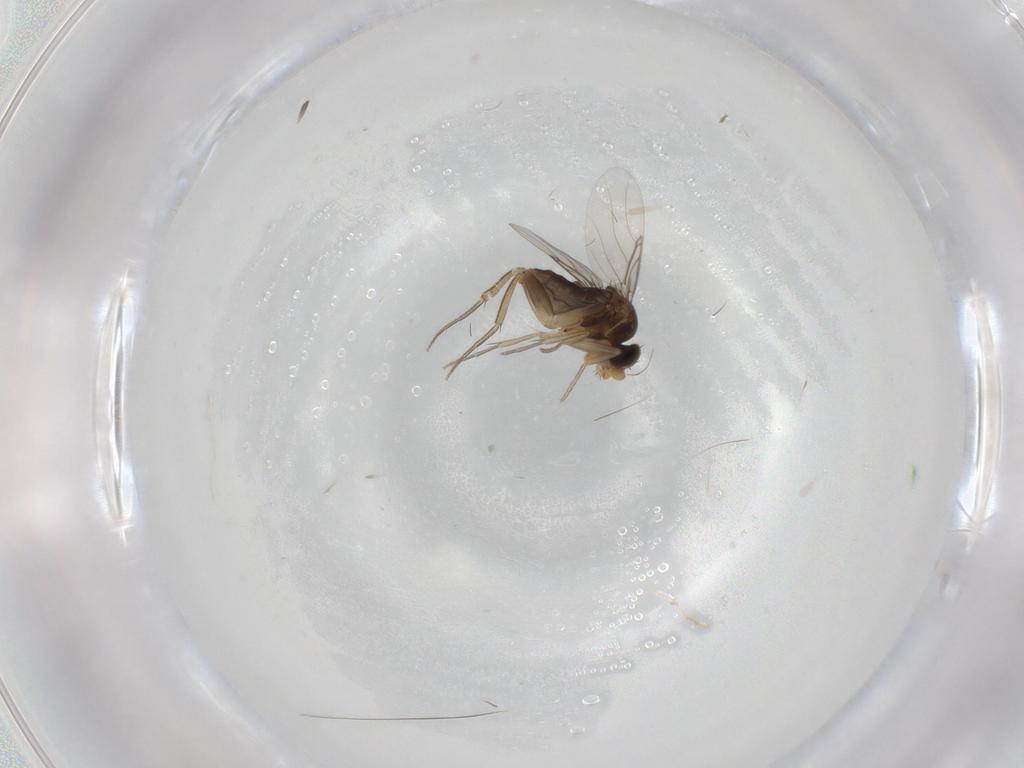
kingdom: Animalia
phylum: Arthropoda
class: Insecta
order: Diptera
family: Phoridae
